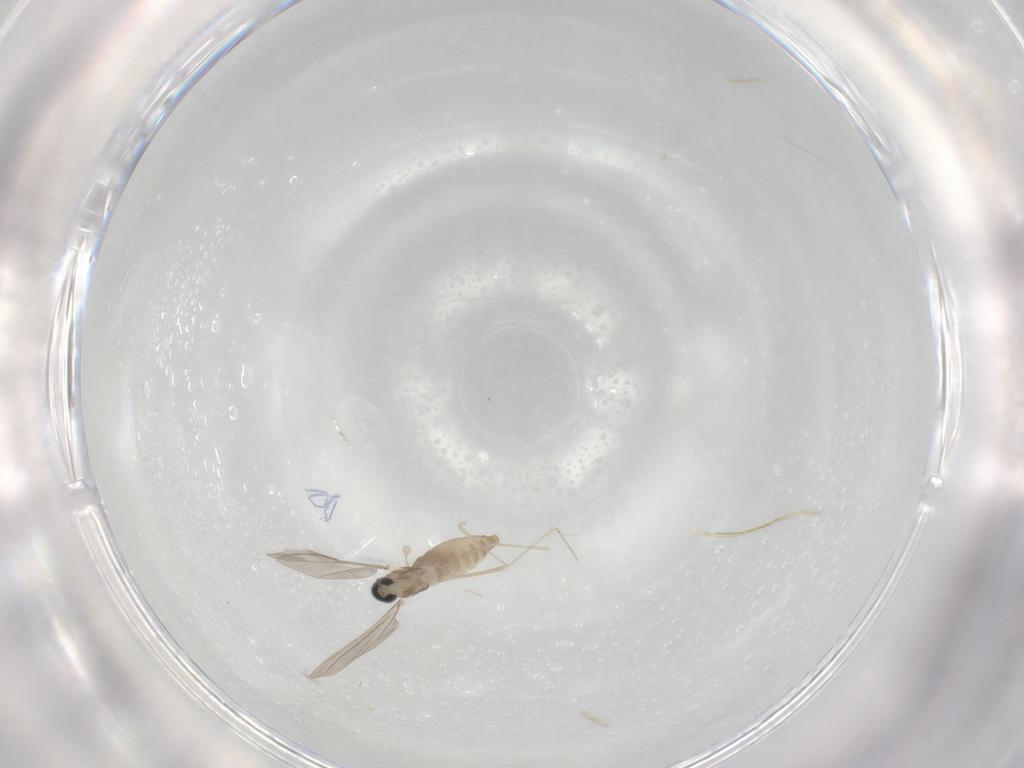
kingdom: Animalia
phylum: Arthropoda
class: Insecta
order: Diptera
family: Cecidomyiidae
